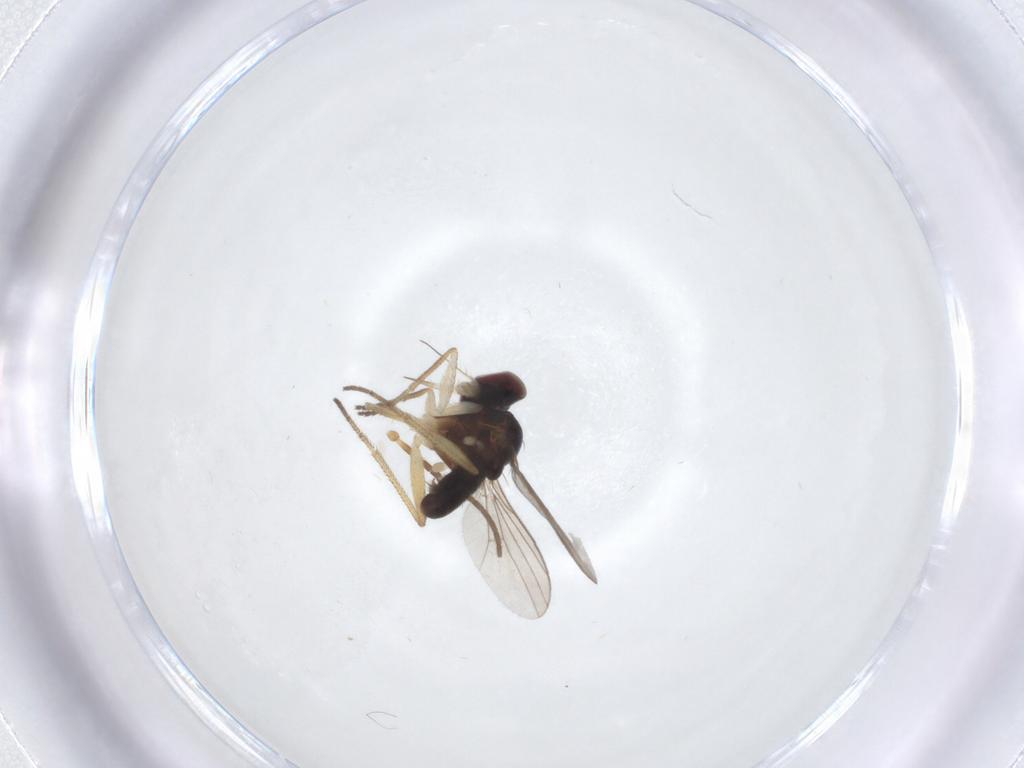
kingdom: Animalia
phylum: Arthropoda
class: Insecta
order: Diptera
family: Dolichopodidae
